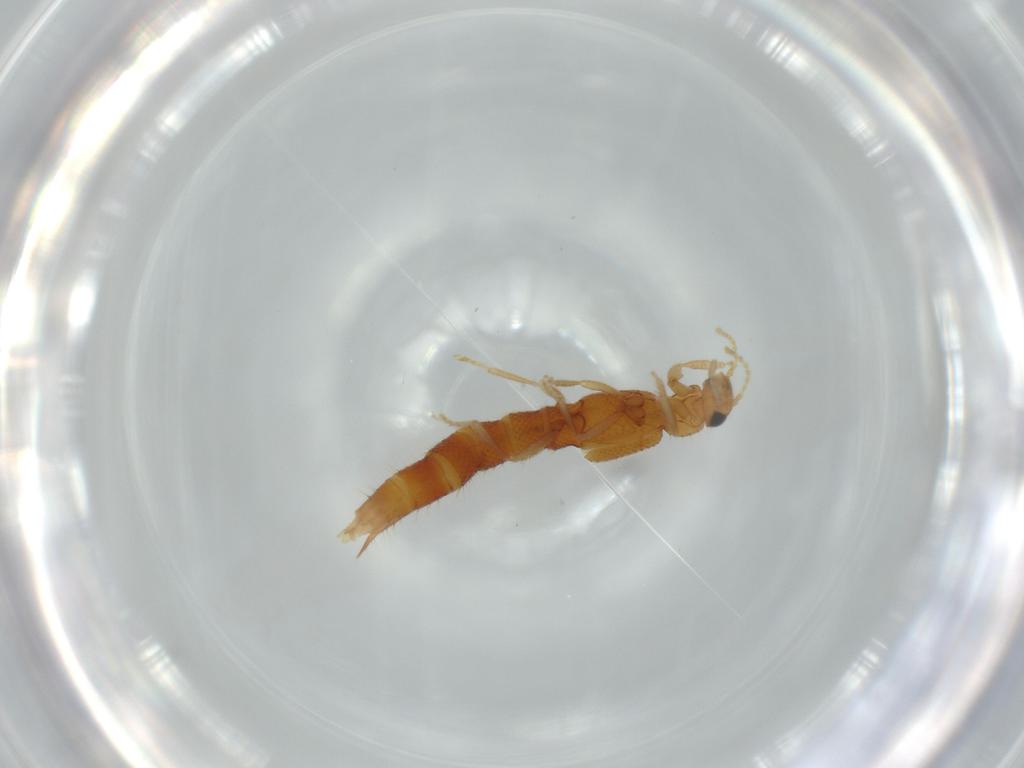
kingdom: Animalia
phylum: Arthropoda
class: Insecta
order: Coleoptera
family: Staphylinidae
